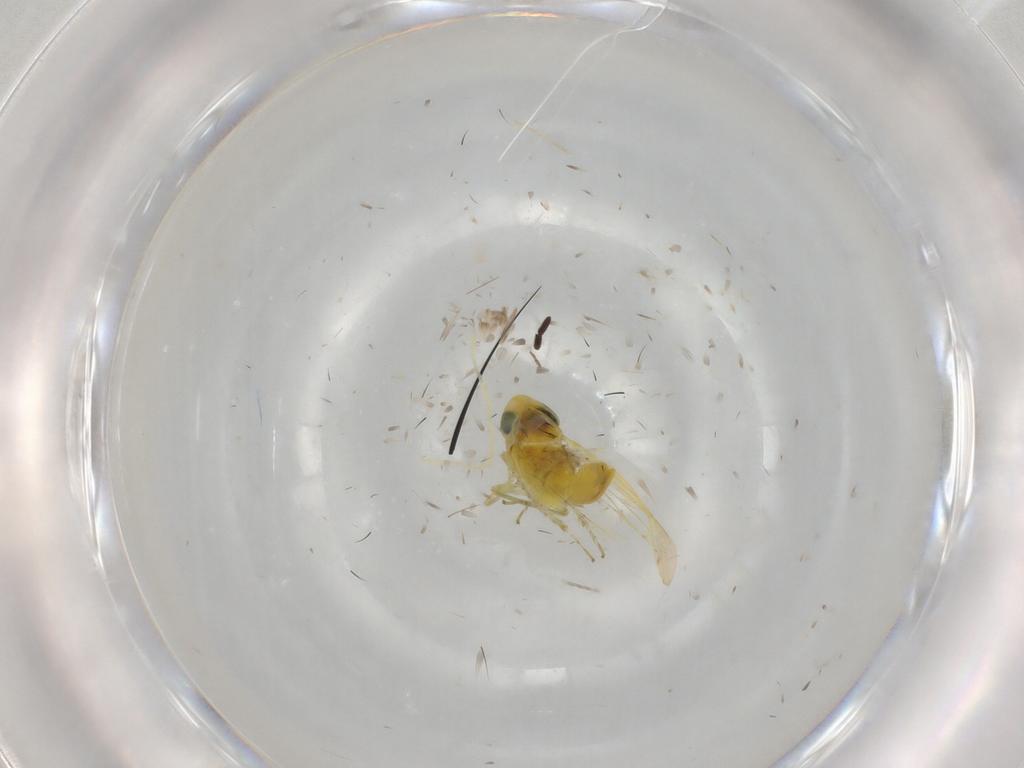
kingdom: Animalia
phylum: Arthropoda
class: Insecta
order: Hemiptera
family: Cicadellidae
